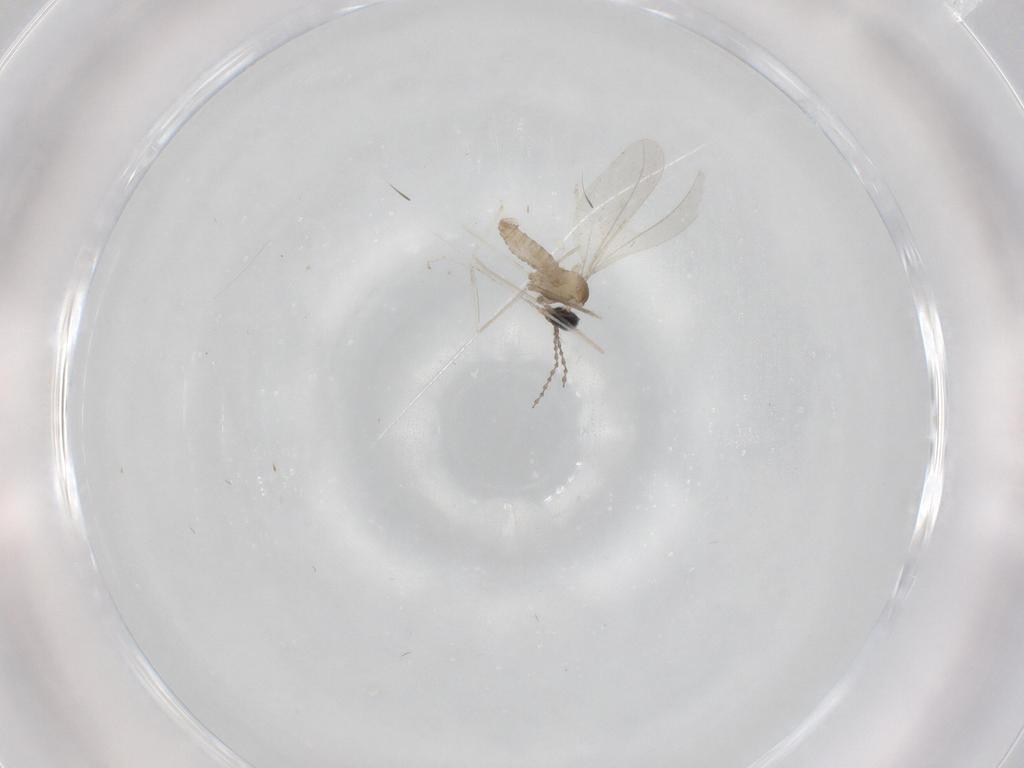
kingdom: Animalia
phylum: Arthropoda
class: Insecta
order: Diptera
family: Cecidomyiidae
